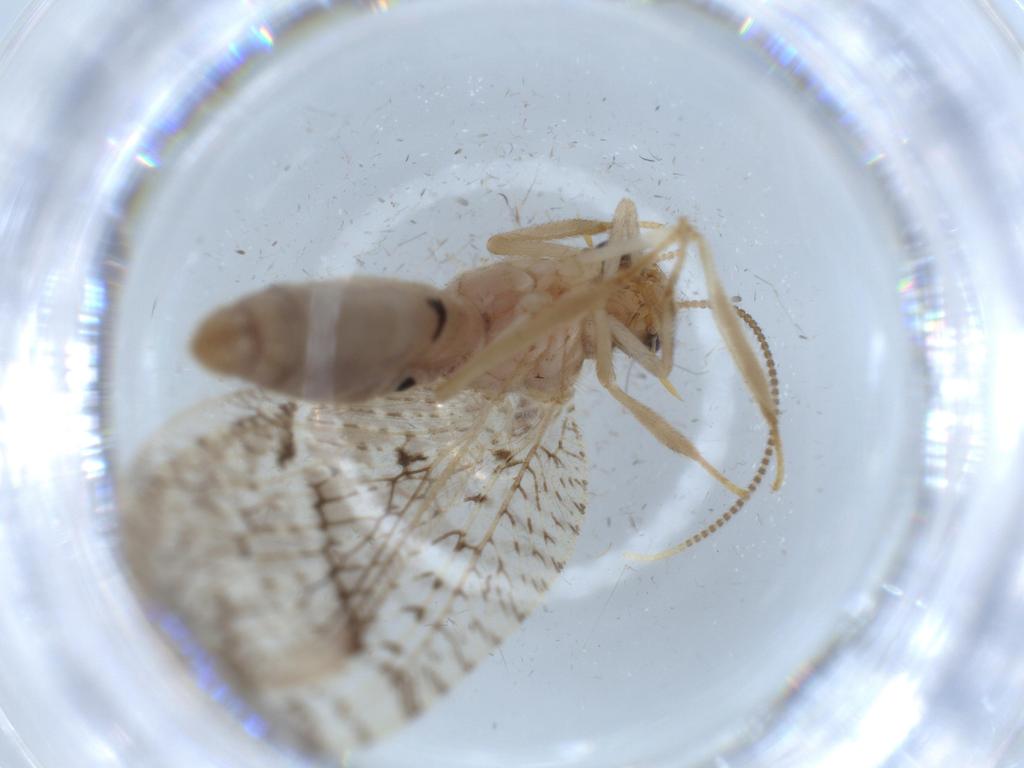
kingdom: Animalia
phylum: Arthropoda
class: Insecta
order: Neuroptera
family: Hemerobiidae
